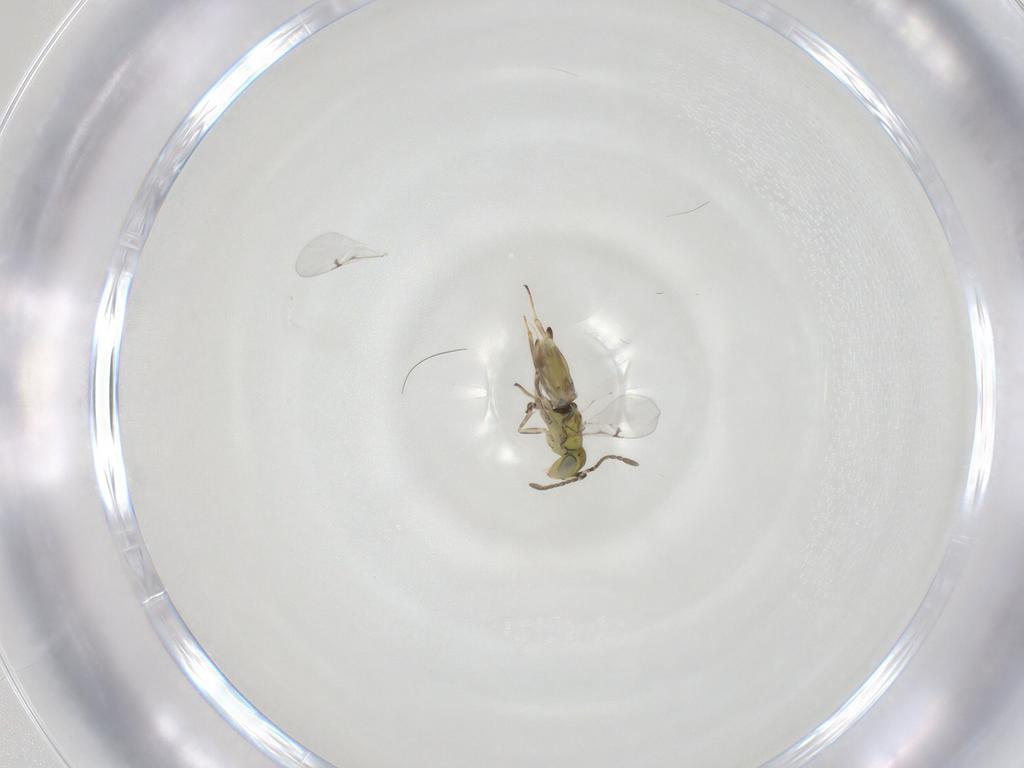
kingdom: Animalia
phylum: Arthropoda
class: Insecta
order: Hymenoptera
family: Encyrtidae
